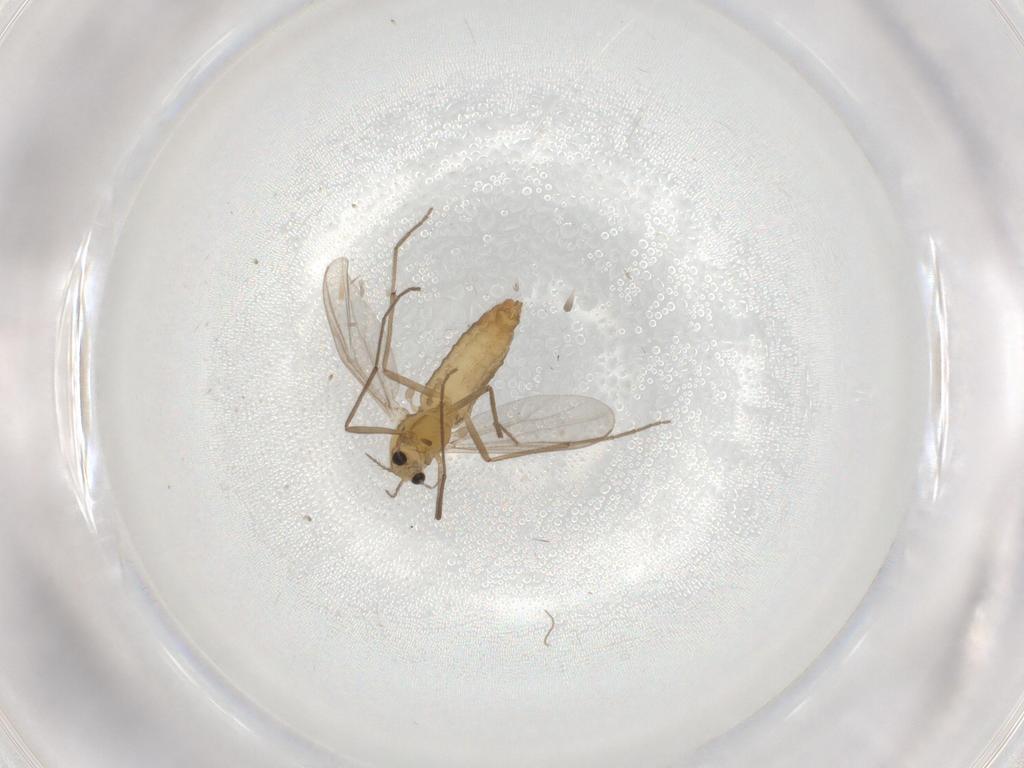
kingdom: Animalia
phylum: Arthropoda
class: Insecta
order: Diptera
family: Chironomidae
